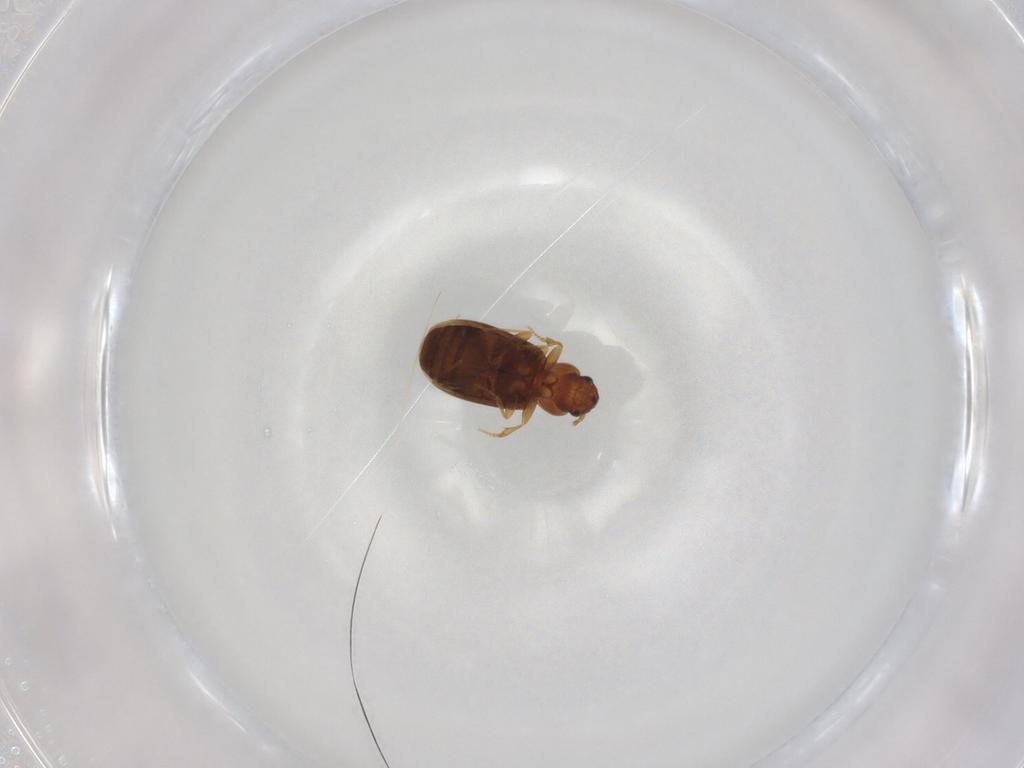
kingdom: Animalia
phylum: Arthropoda
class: Insecta
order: Coleoptera
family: Carabidae
